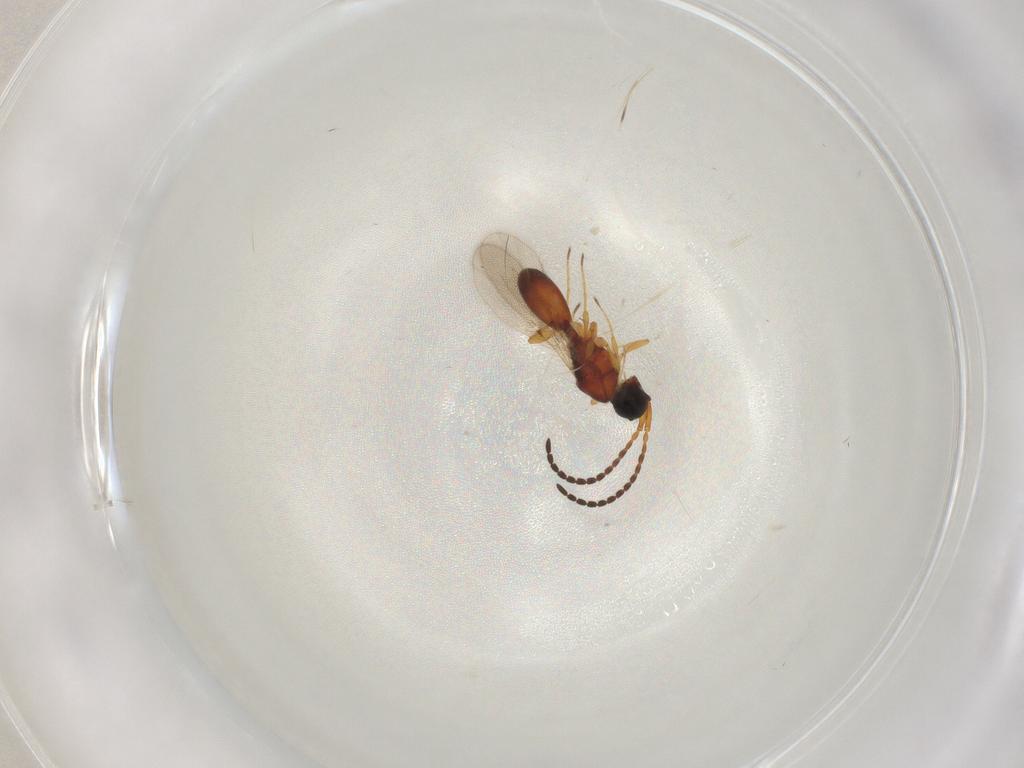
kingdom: Animalia
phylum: Arthropoda
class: Insecta
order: Hymenoptera
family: Diapriidae
